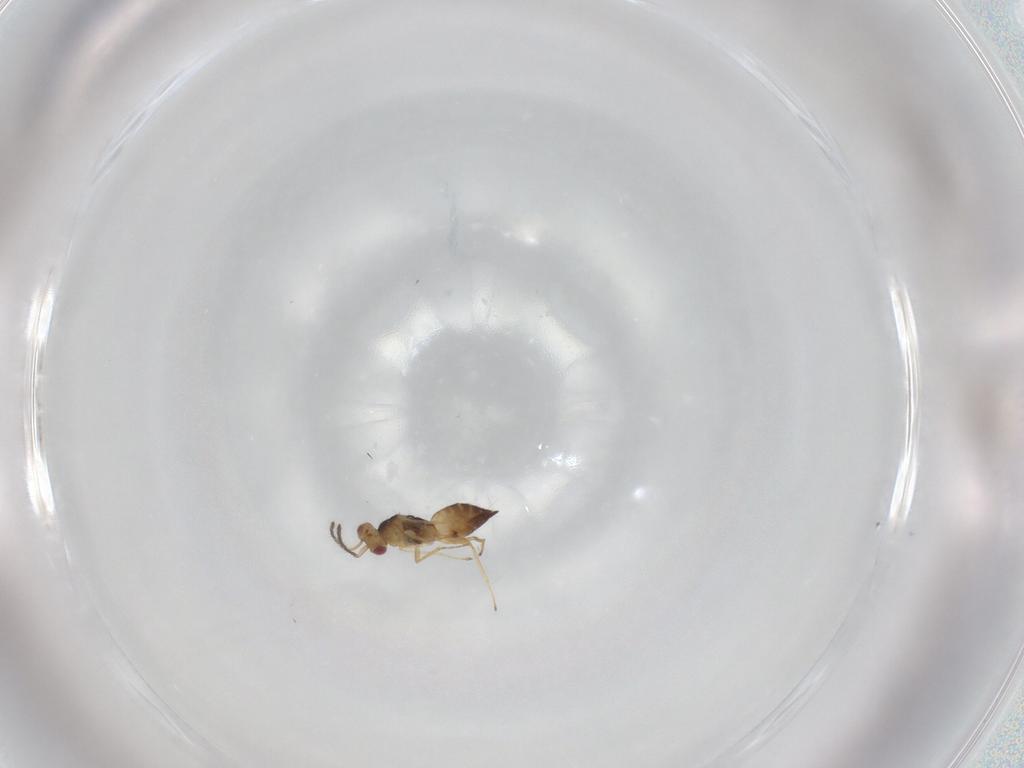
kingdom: Animalia
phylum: Arthropoda
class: Insecta
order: Hymenoptera
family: Eulophidae
